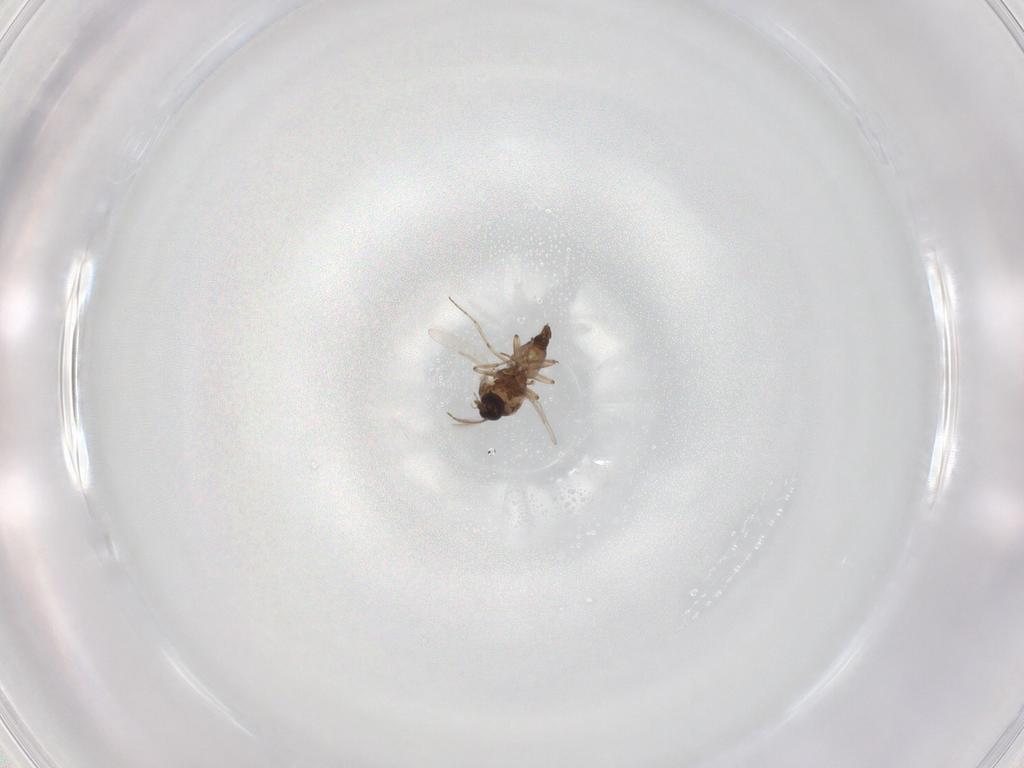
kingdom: Animalia
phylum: Arthropoda
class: Insecta
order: Diptera
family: Ceratopogonidae
